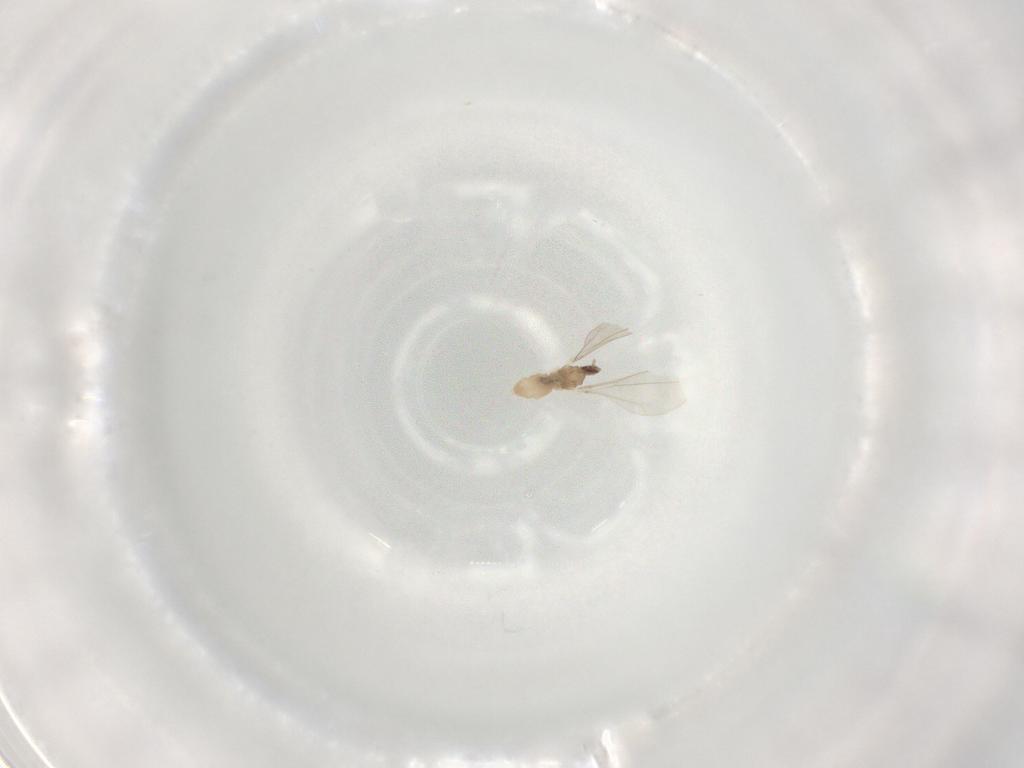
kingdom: Animalia
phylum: Arthropoda
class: Insecta
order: Diptera
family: Cecidomyiidae
